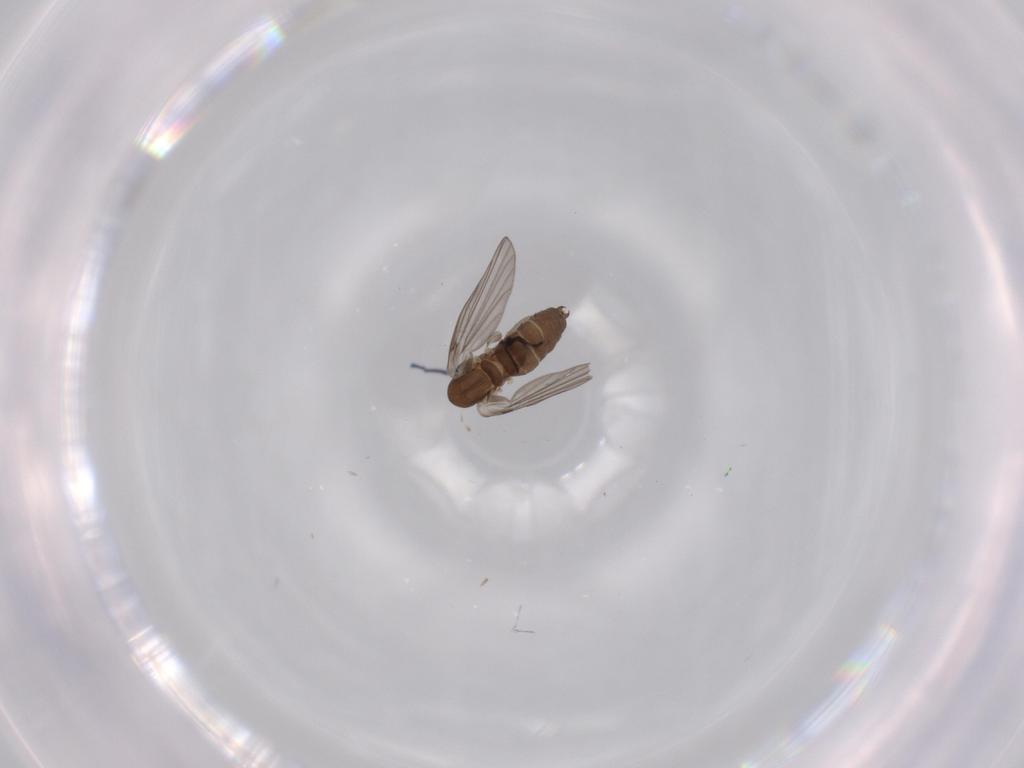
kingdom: Animalia
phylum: Arthropoda
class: Insecta
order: Diptera
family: Psychodidae
